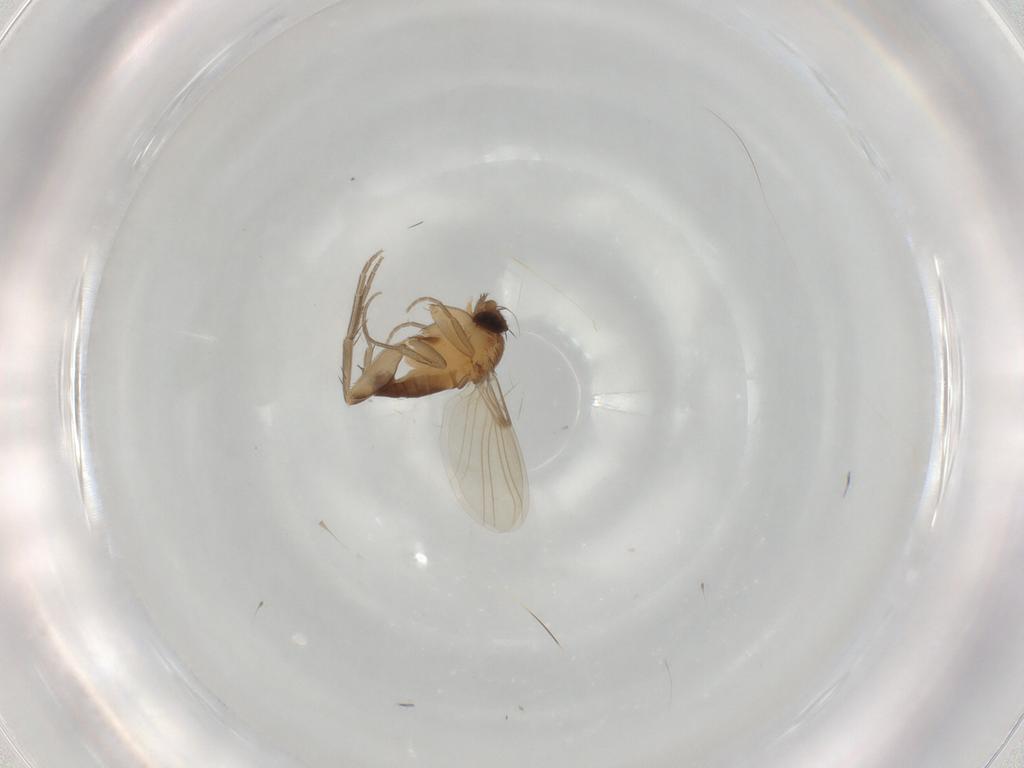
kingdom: Animalia
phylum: Arthropoda
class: Insecta
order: Diptera
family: Phoridae
